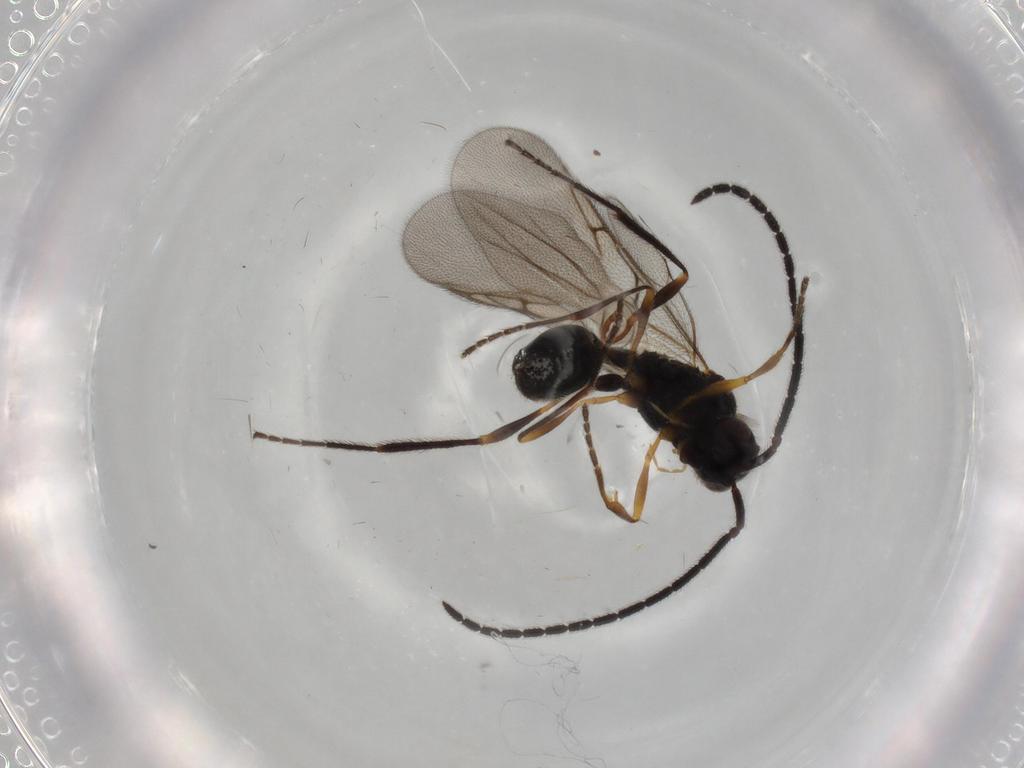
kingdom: Animalia
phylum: Arthropoda
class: Insecta
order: Hymenoptera
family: Diapriidae
